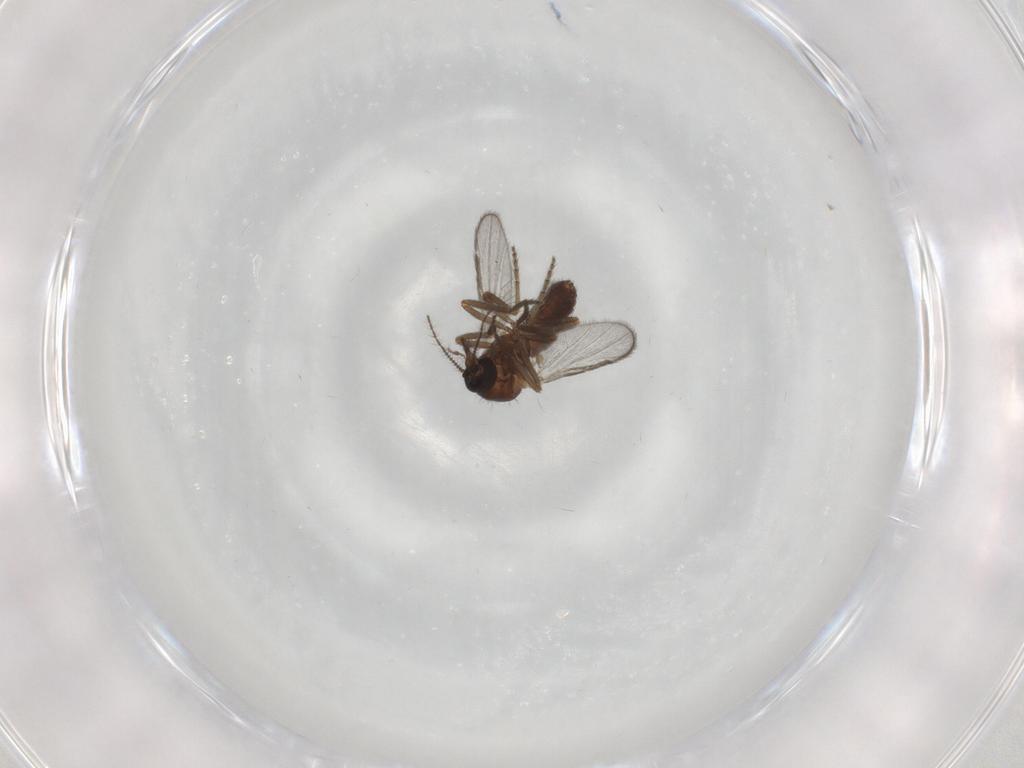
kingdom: Animalia
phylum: Arthropoda
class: Insecta
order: Diptera
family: Ceratopogonidae
